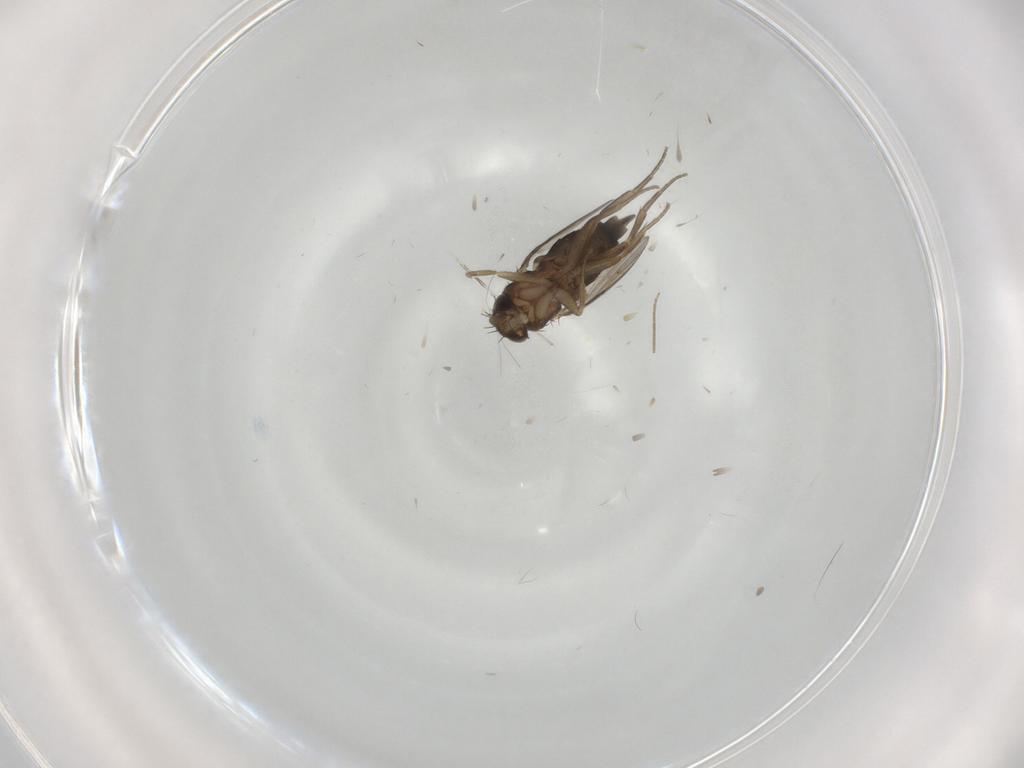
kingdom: Animalia
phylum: Arthropoda
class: Insecta
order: Diptera
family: Phoridae
